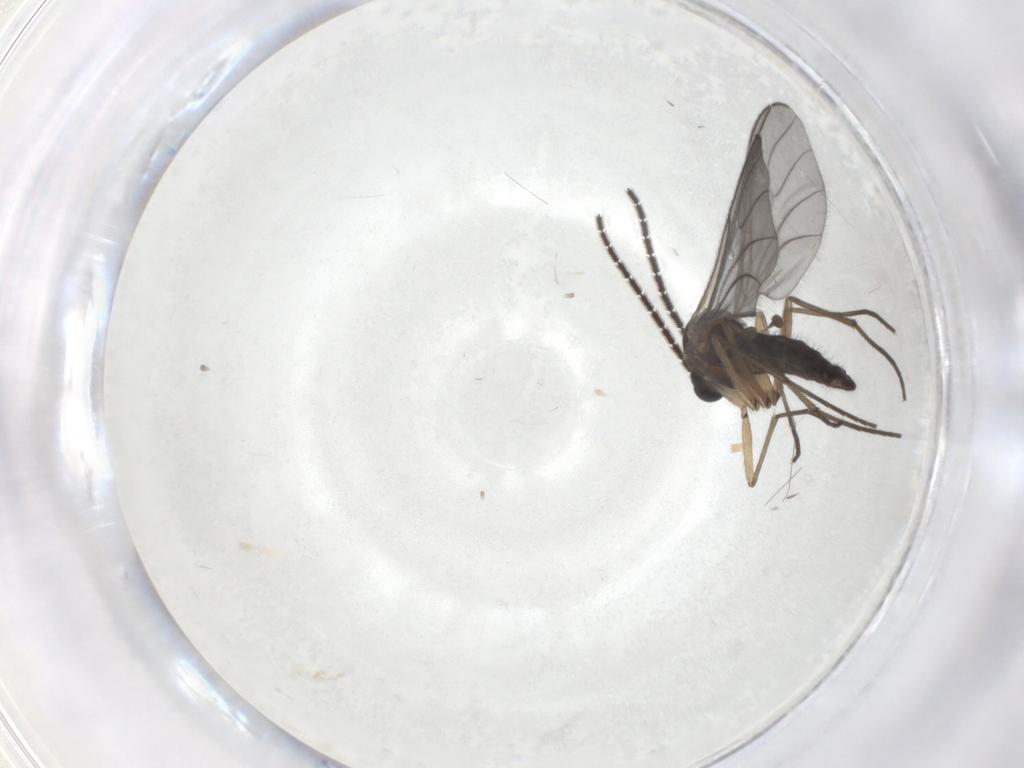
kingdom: Animalia
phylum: Arthropoda
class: Insecta
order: Diptera
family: Sciaridae
